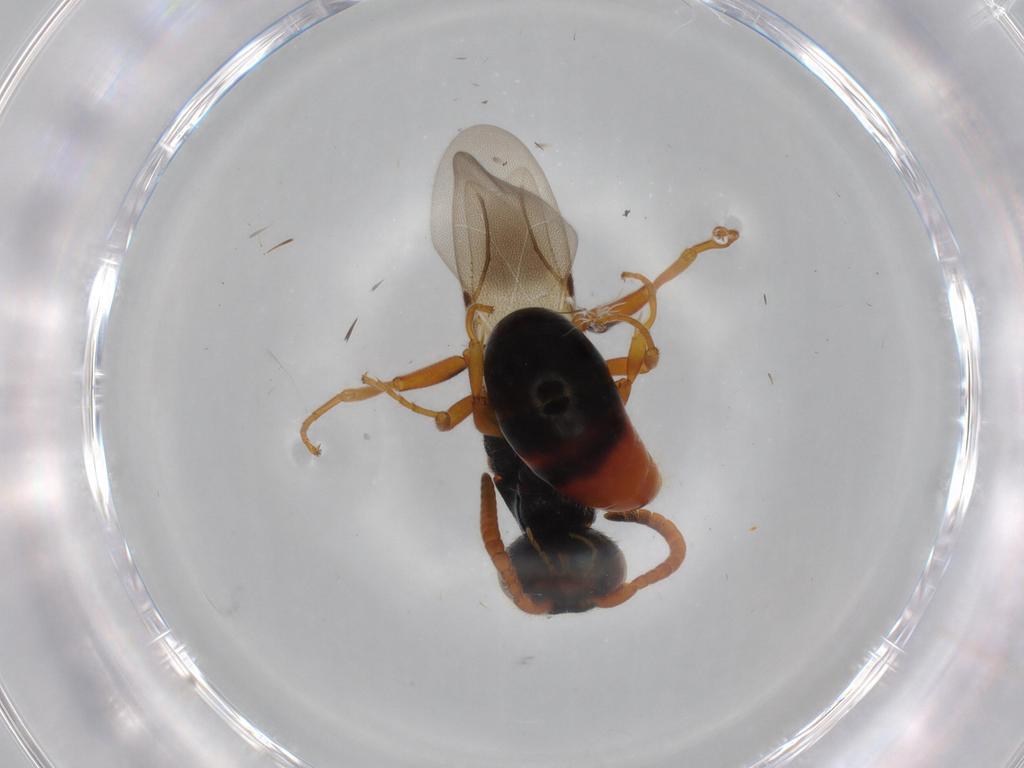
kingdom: Animalia
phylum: Arthropoda
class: Insecta
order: Hymenoptera
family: Bethylidae
